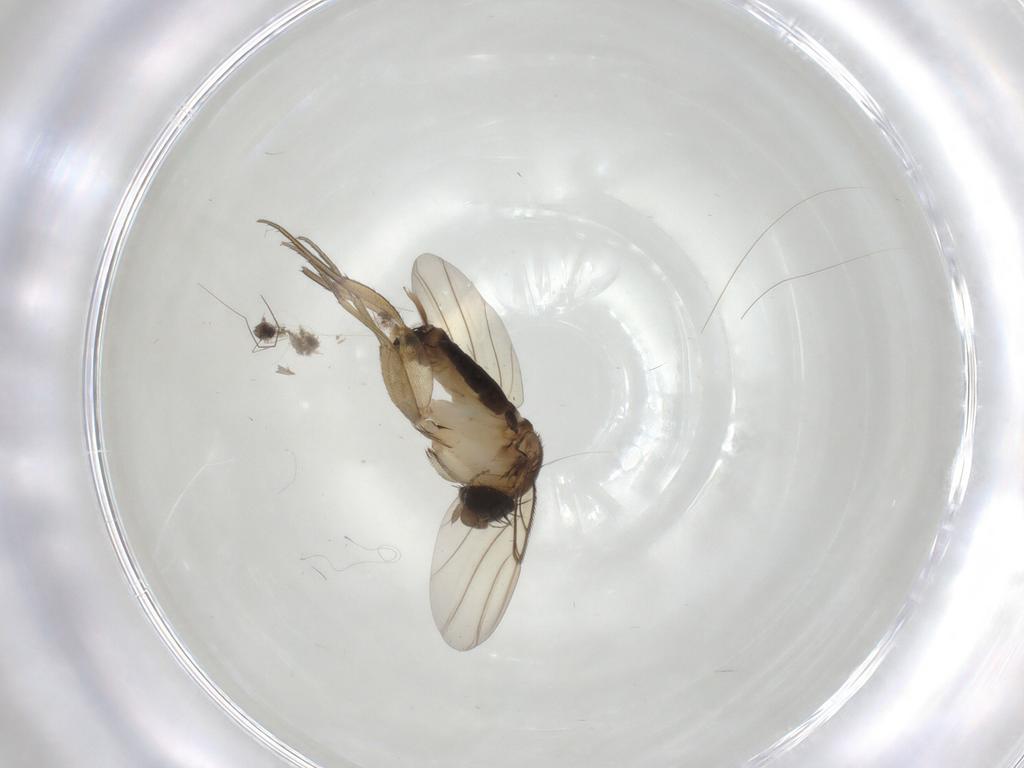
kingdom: Animalia
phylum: Arthropoda
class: Insecta
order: Diptera
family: Phoridae
